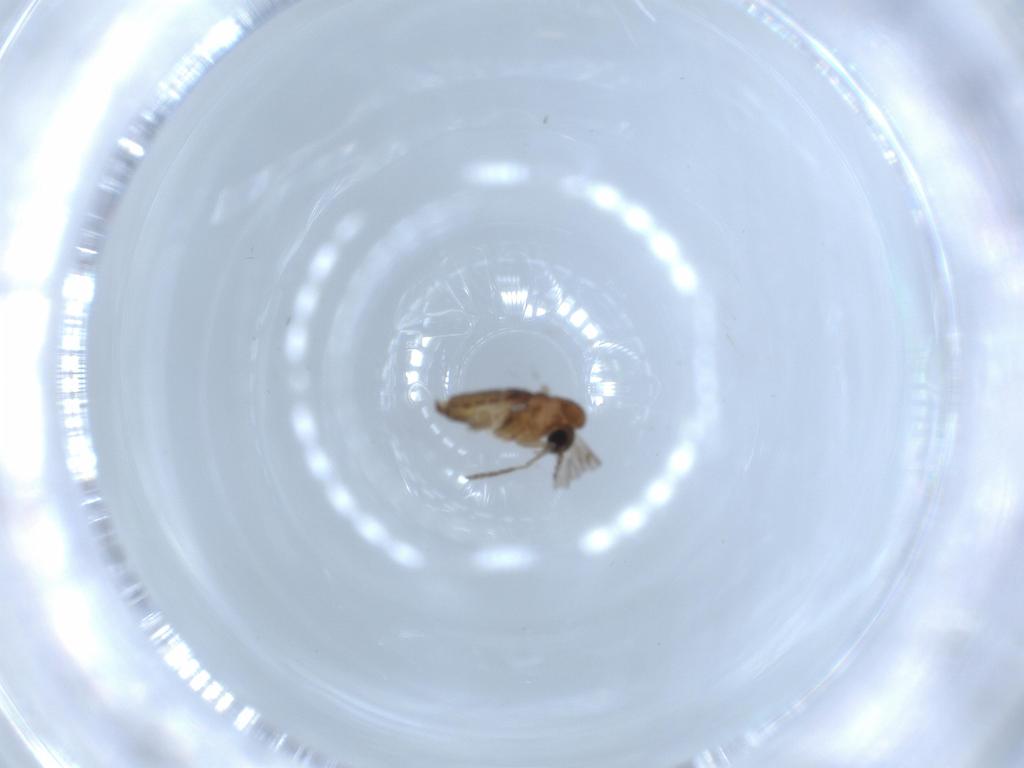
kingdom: Animalia
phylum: Arthropoda
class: Insecta
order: Diptera
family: Psychodidae
